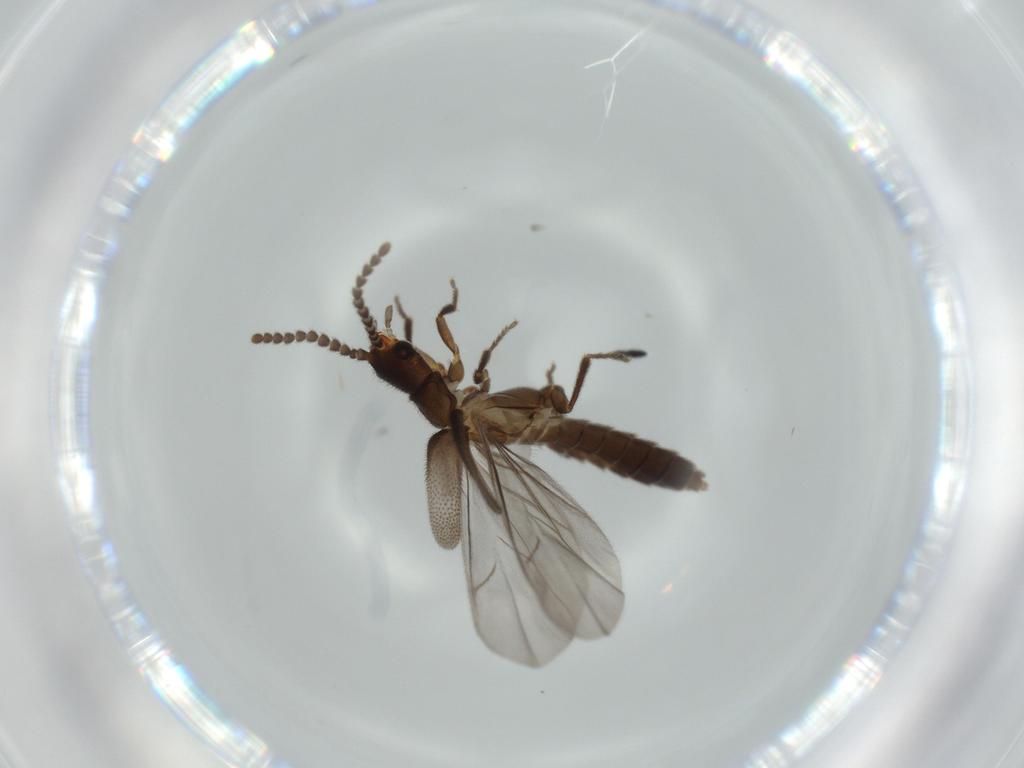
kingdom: Animalia
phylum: Arthropoda
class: Insecta
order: Coleoptera
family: Omethidae
